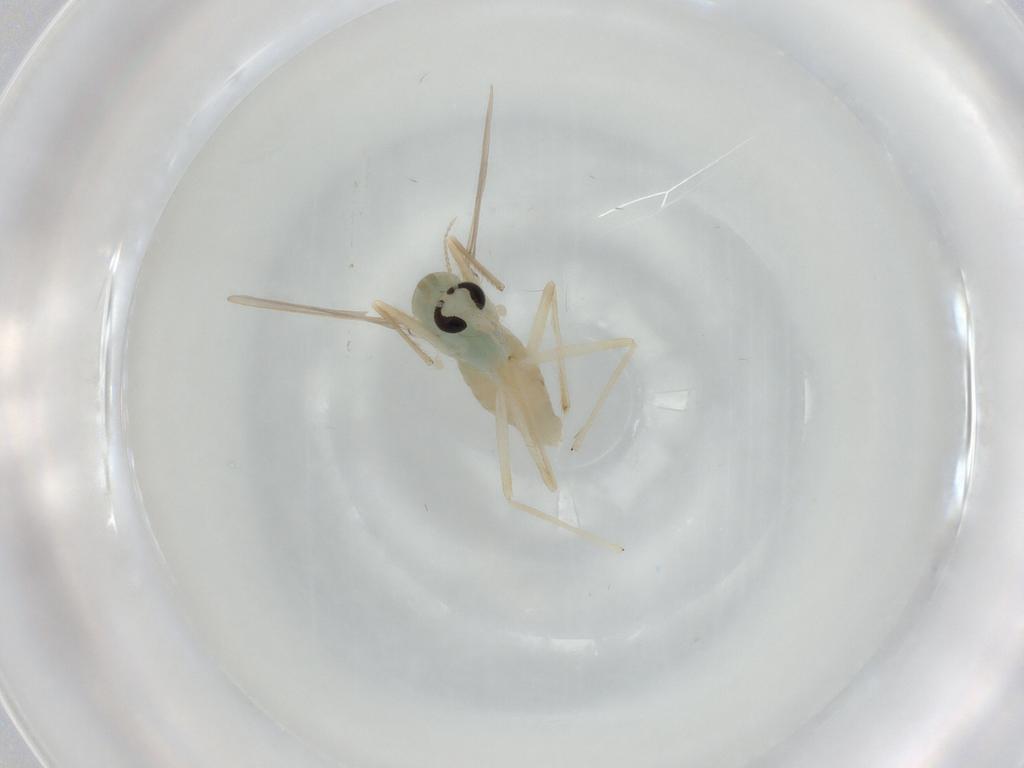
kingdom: Animalia
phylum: Arthropoda
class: Insecta
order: Diptera
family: Chironomidae
